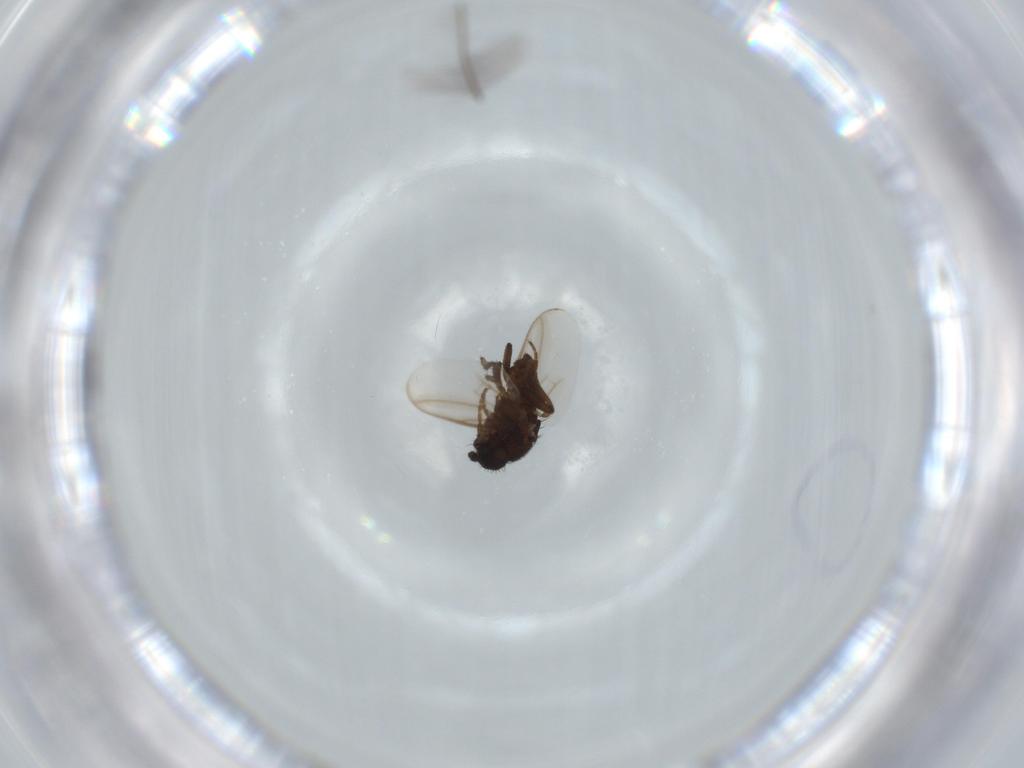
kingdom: Animalia
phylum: Arthropoda
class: Insecta
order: Diptera
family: Sphaeroceridae
